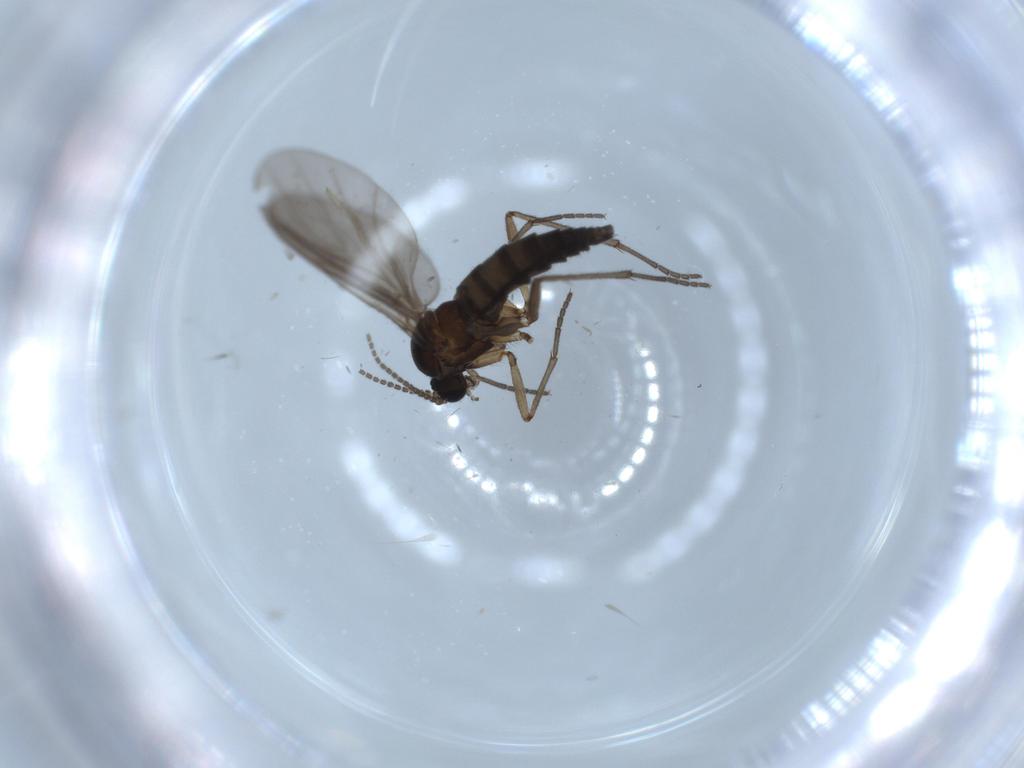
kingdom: Animalia
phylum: Arthropoda
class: Insecta
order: Diptera
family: Sciaridae
